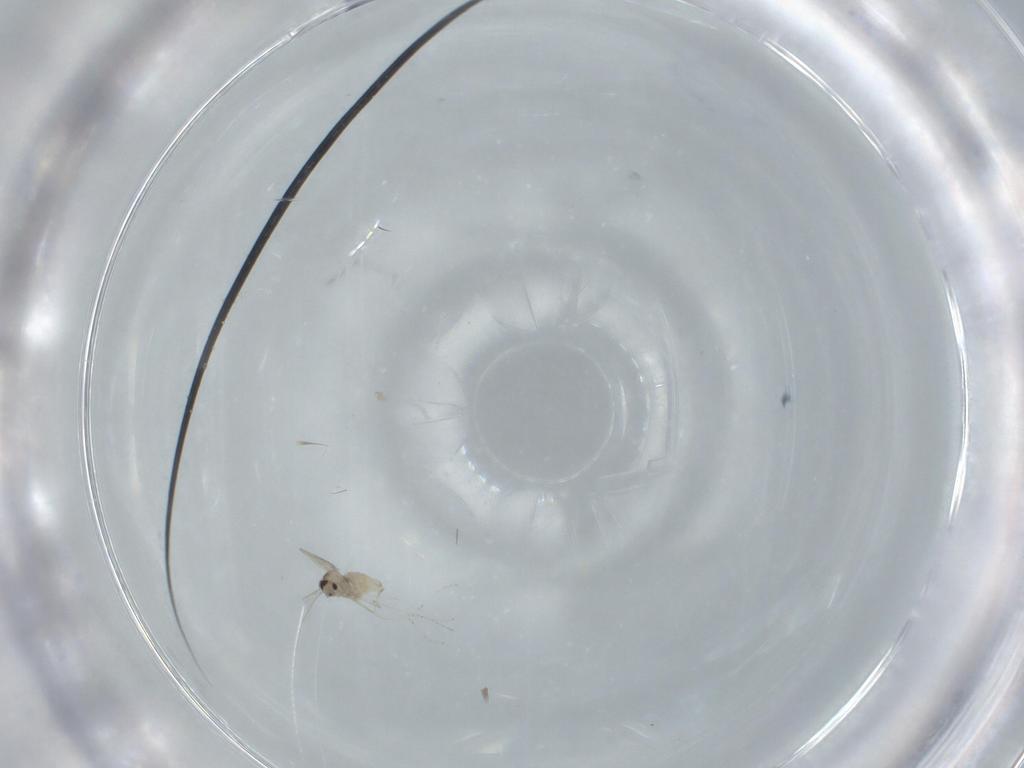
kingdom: Animalia
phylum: Arthropoda
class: Insecta
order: Diptera
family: Cecidomyiidae
